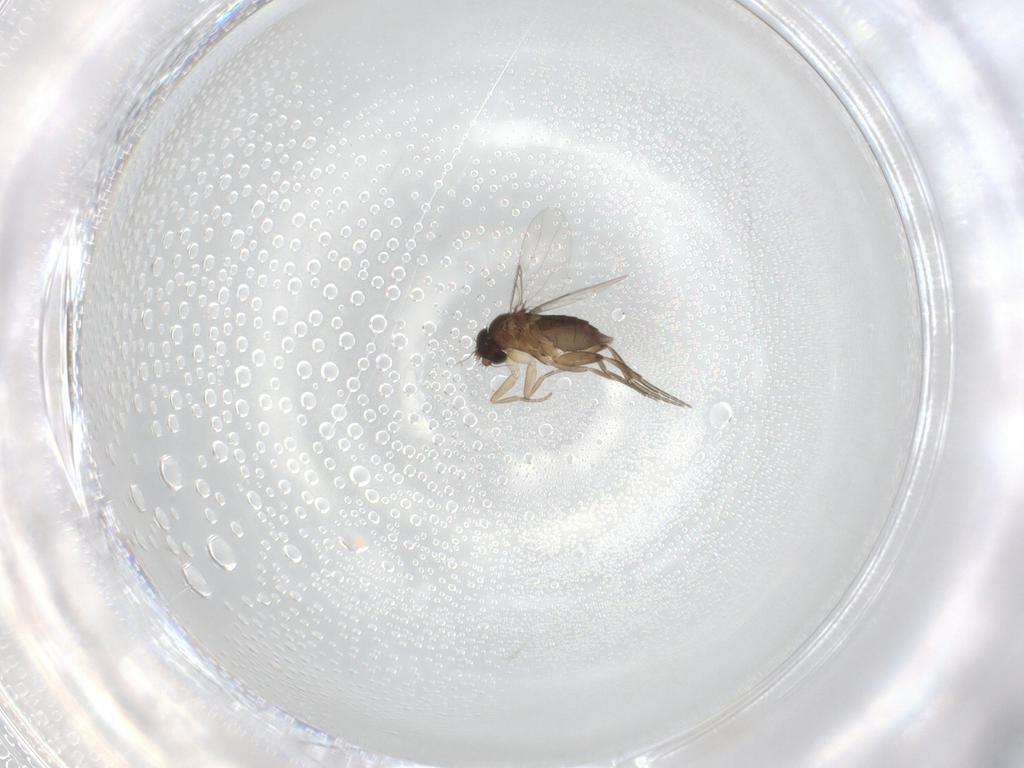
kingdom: Animalia
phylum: Arthropoda
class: Insecta
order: Diptera
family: Phoridae
